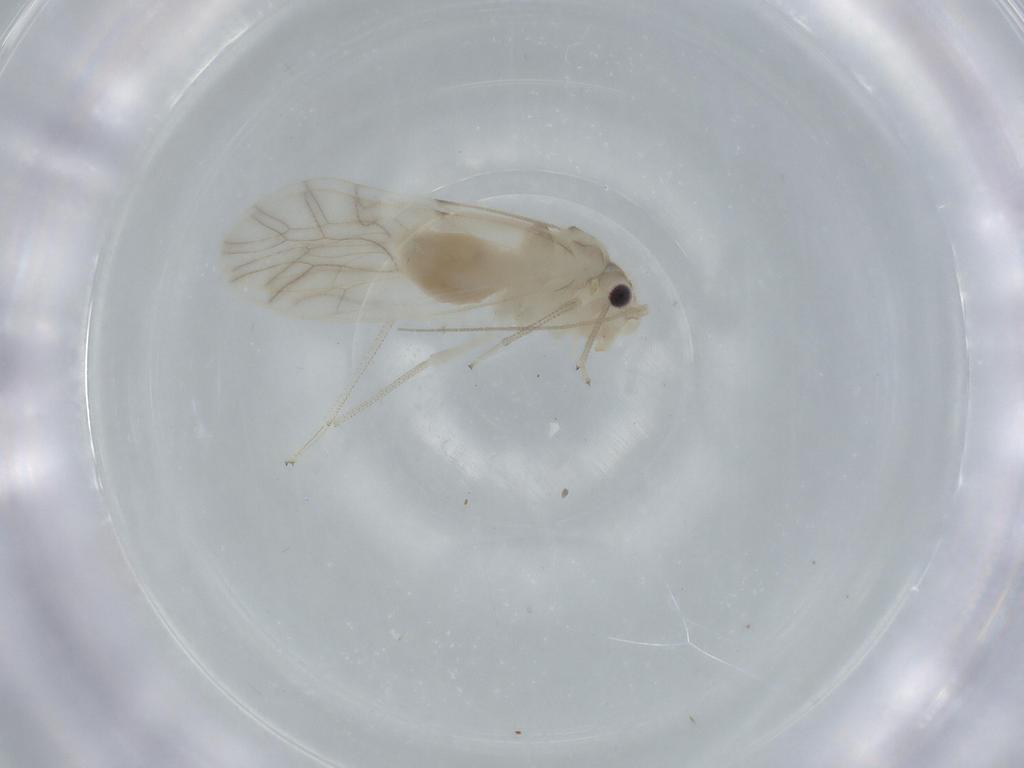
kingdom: Animalia
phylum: Arthropoda
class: Insecta
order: Psocodea
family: Caeciliusidae
